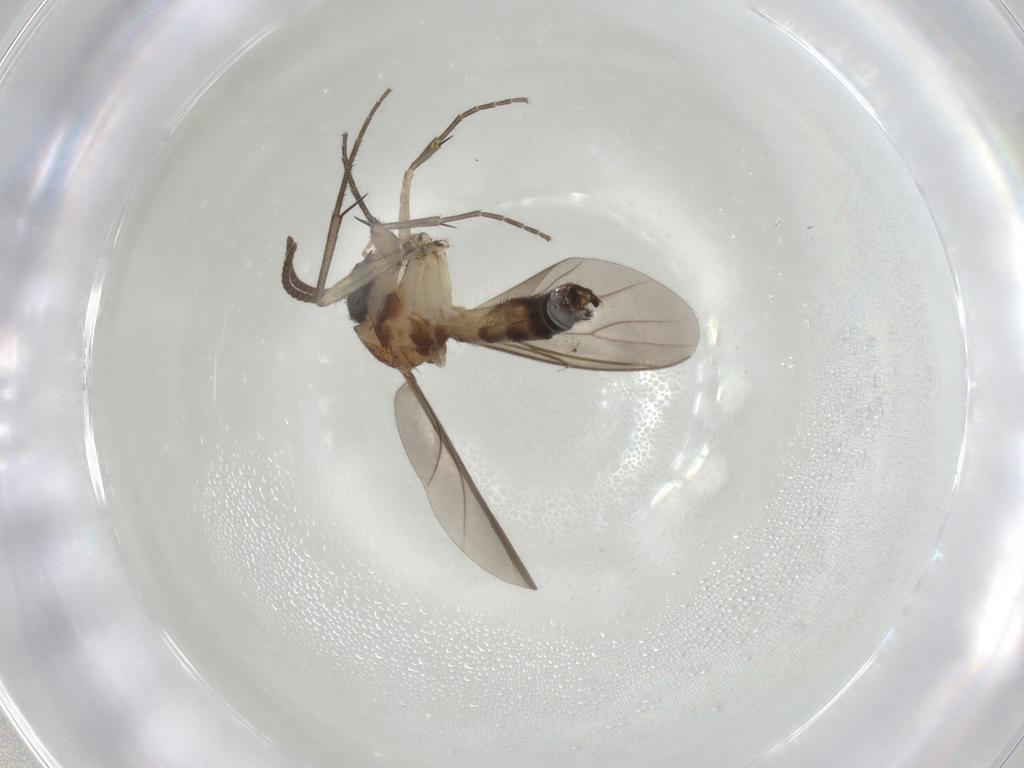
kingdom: Animalia
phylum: Arthropoda
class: Insecta
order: Diptera
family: Mycetophilidae
